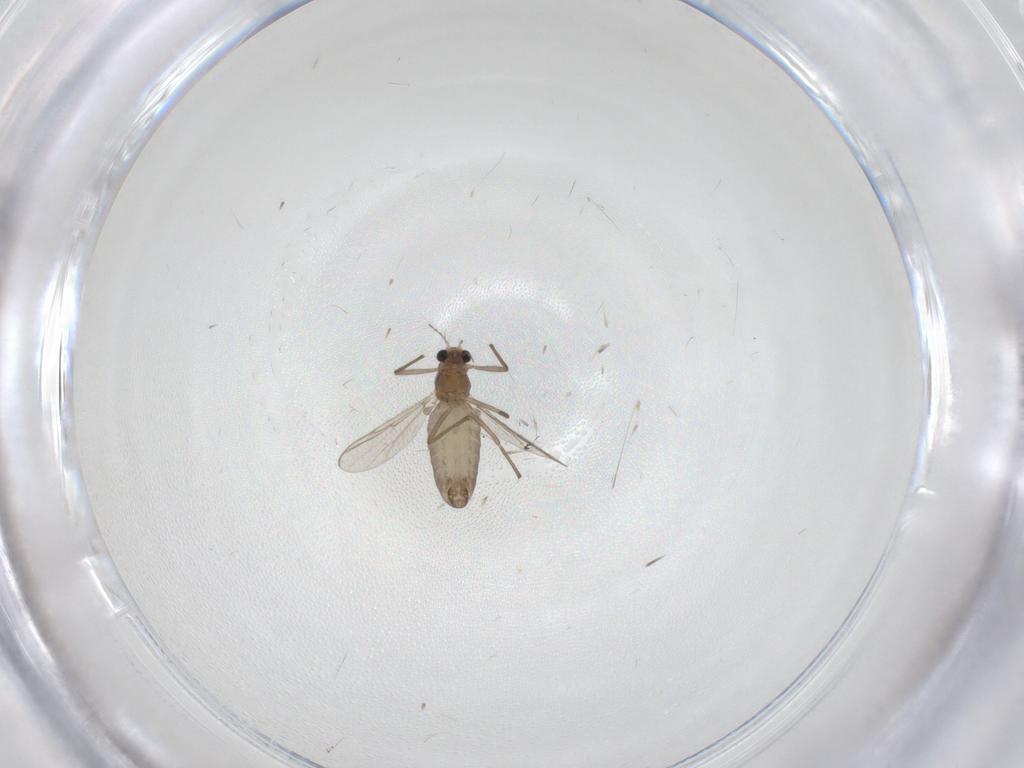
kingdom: Animalia
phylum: Arthropoda
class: Insecta
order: Diptera
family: Chironomidae
